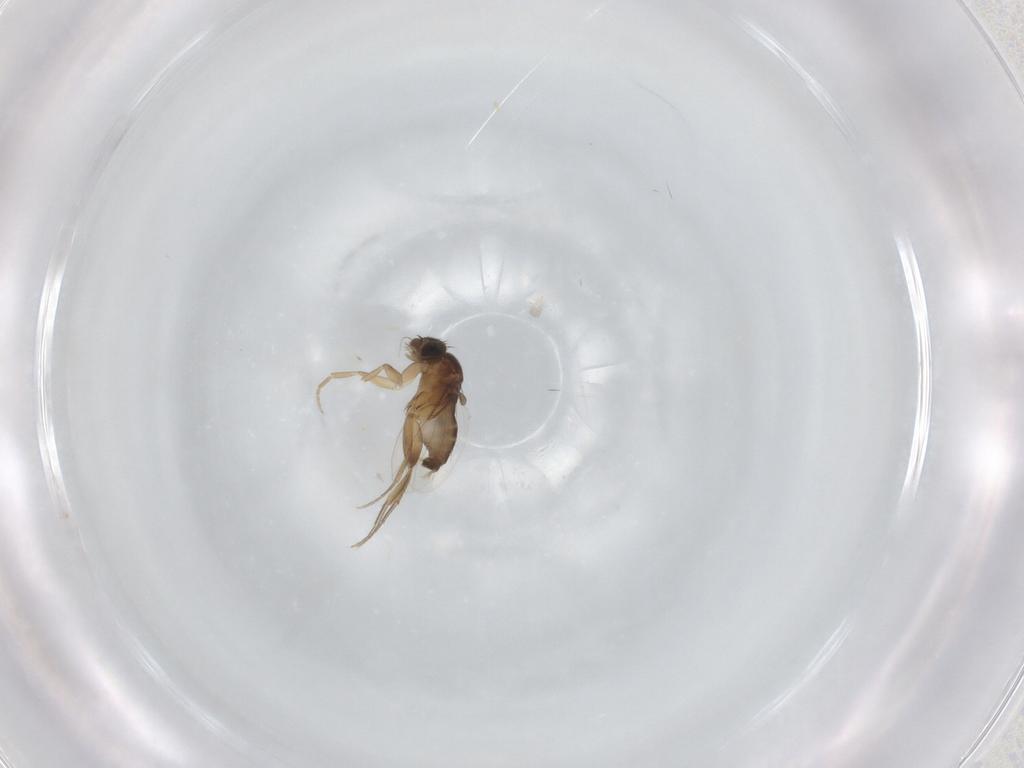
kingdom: Animalia
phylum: Arthropoda
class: Insecta
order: Diptera
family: Phoridae
